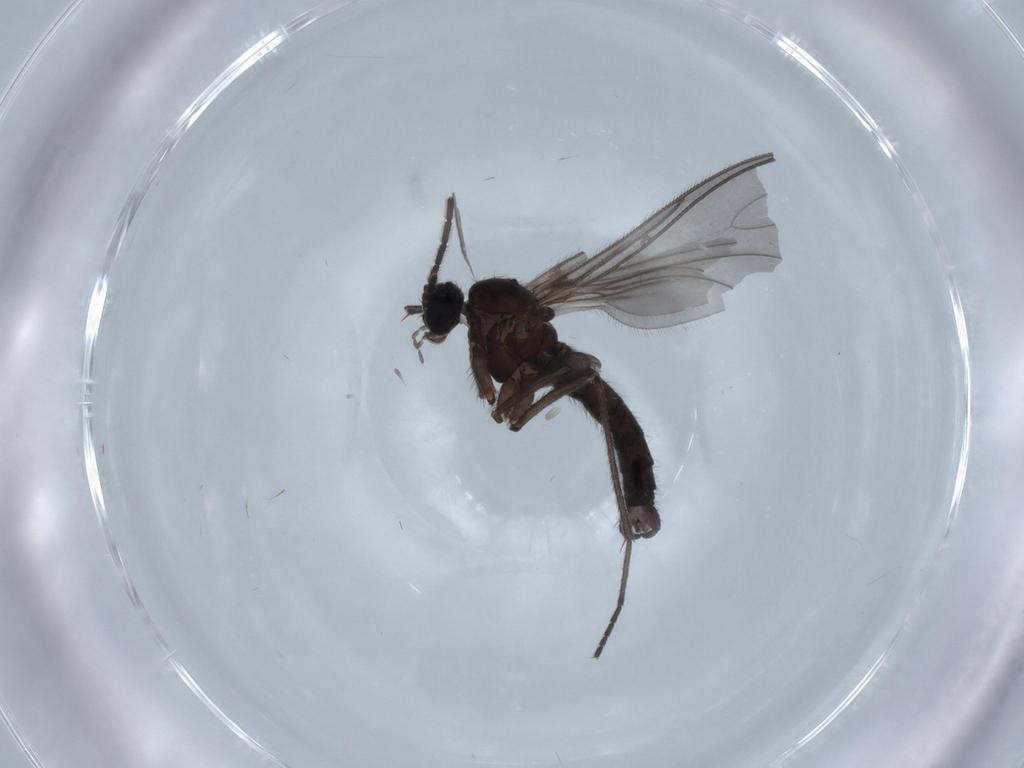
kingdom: Animalia
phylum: Arthropoda
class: Insecta
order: Diptera
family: Sciaridae
